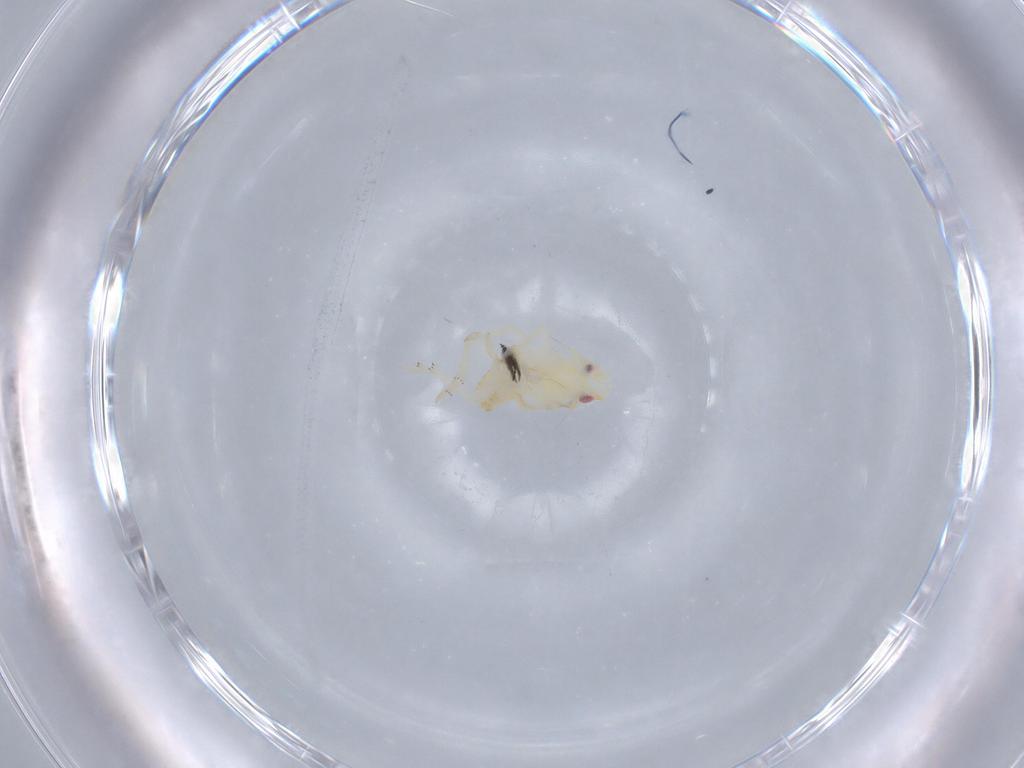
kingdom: Animalia
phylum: Arthropoda
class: Insecta
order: Hemiptera
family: Flatidae
